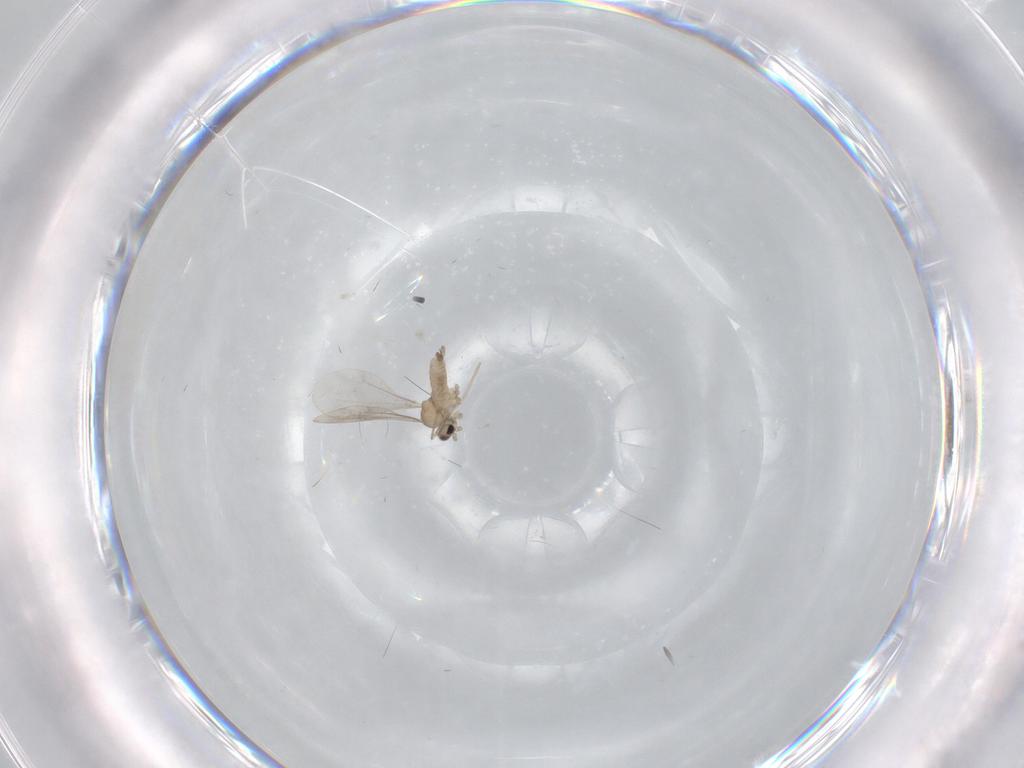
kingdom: Animalia
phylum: Arthropoda
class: Insecta
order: Diptera
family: Cecidomyiidae
